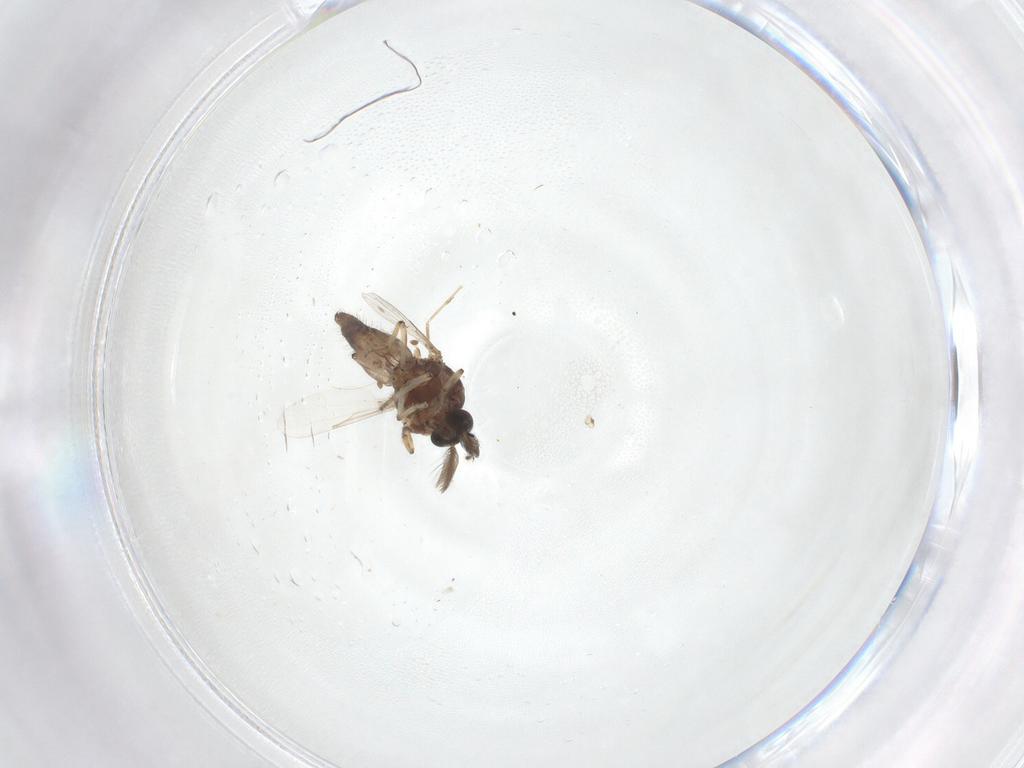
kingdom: Animalia
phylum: Arthropoda
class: Insecta
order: Diptera
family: Ceratopogonidae
